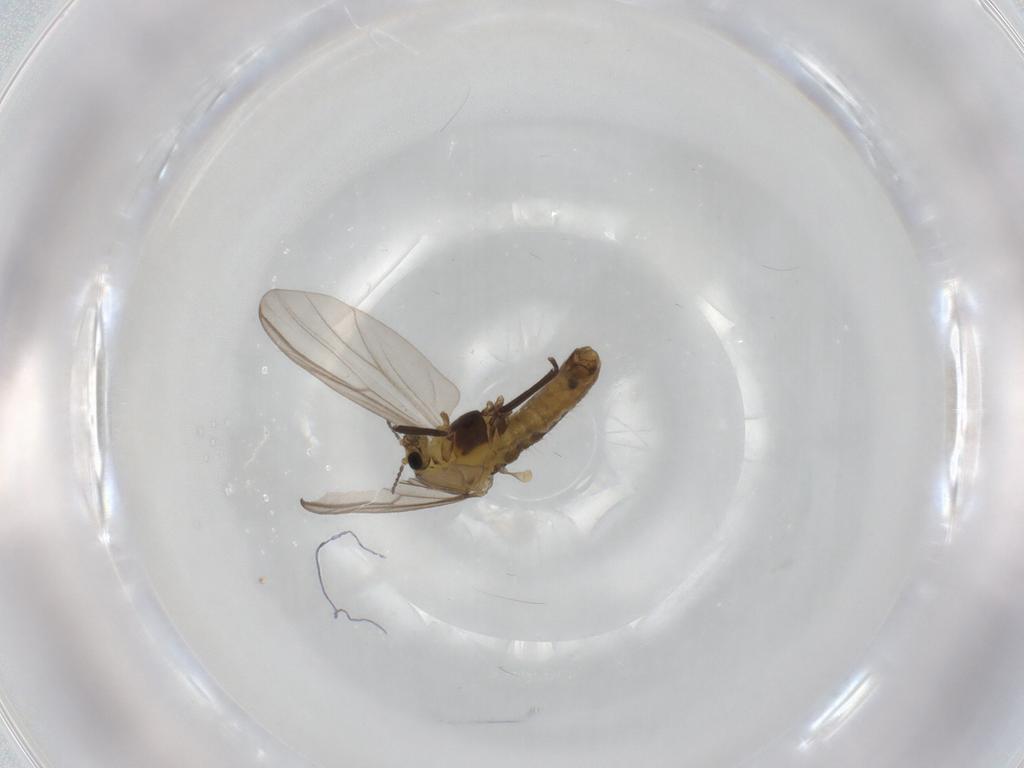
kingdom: Animalia
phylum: Arthropoda
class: Insecta
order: Diptera
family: Chironomidae
